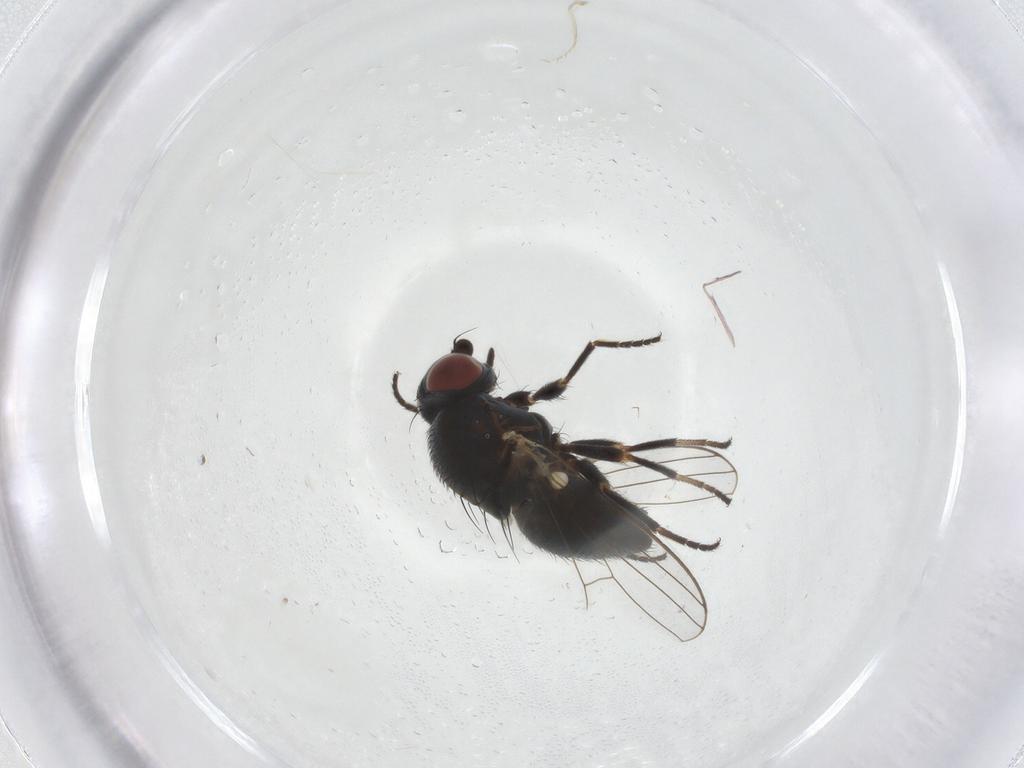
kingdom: Animalia
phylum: Arthropoda
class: Insecta
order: Diptera
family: Chamaemyiidae
